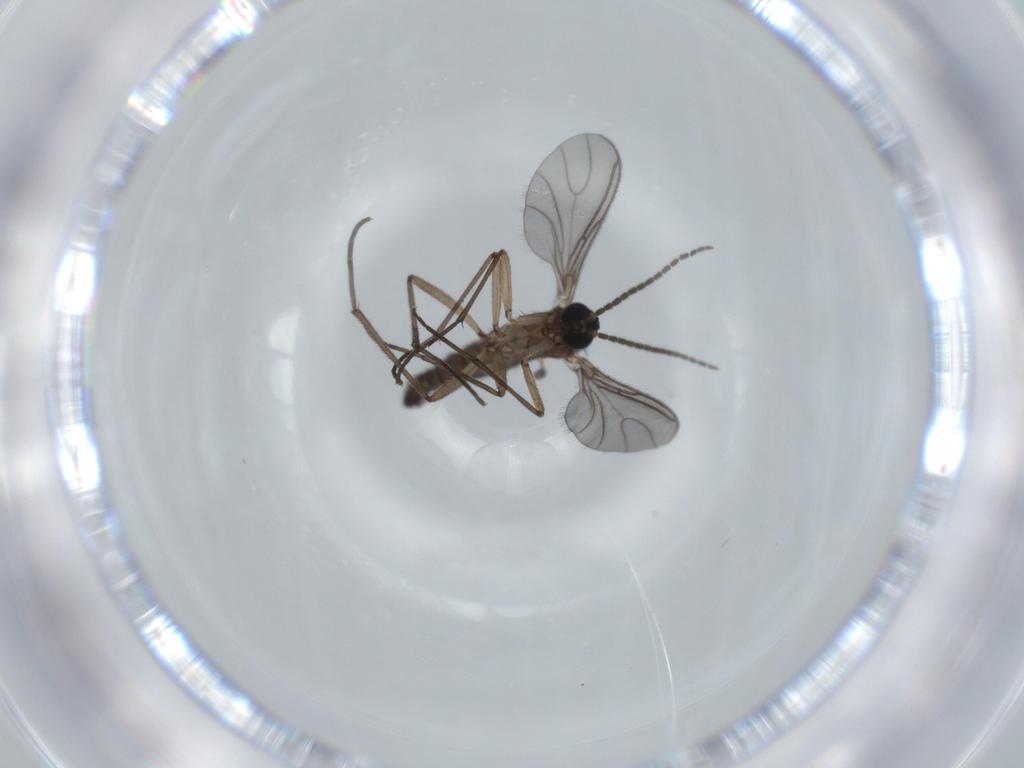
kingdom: Animalia
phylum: Arthropoda
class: Insecta
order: Diptera
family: Sciaridae
